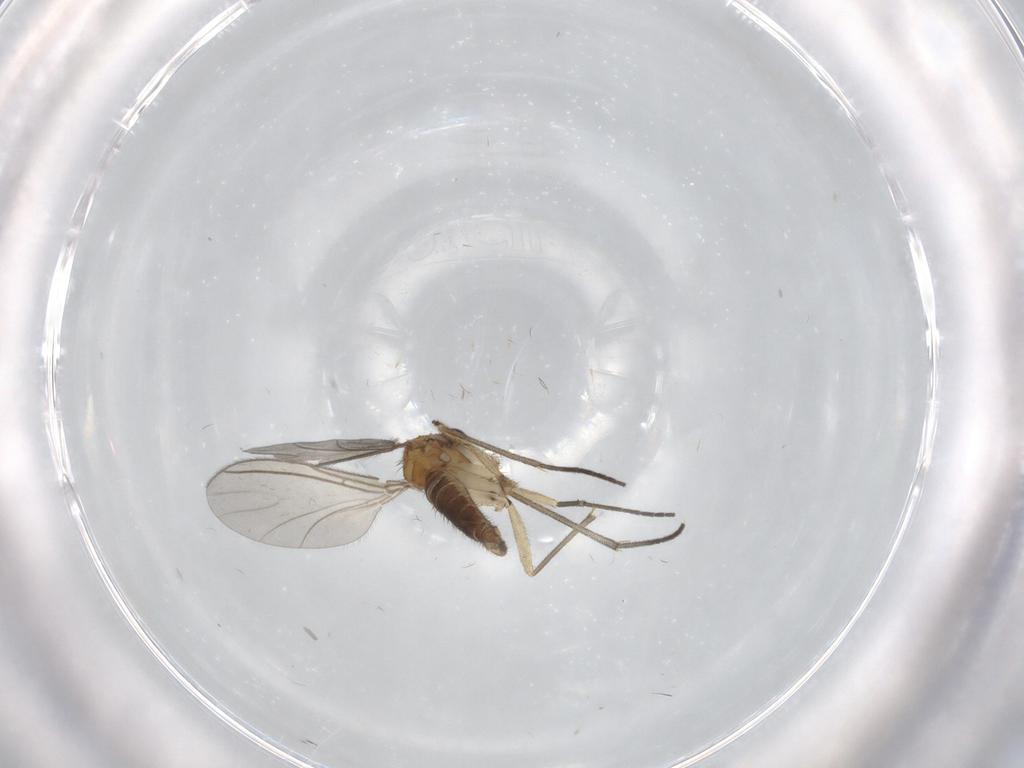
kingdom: Animalia
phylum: Arthropoda
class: Insecta
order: Diptera
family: Sciaridae
